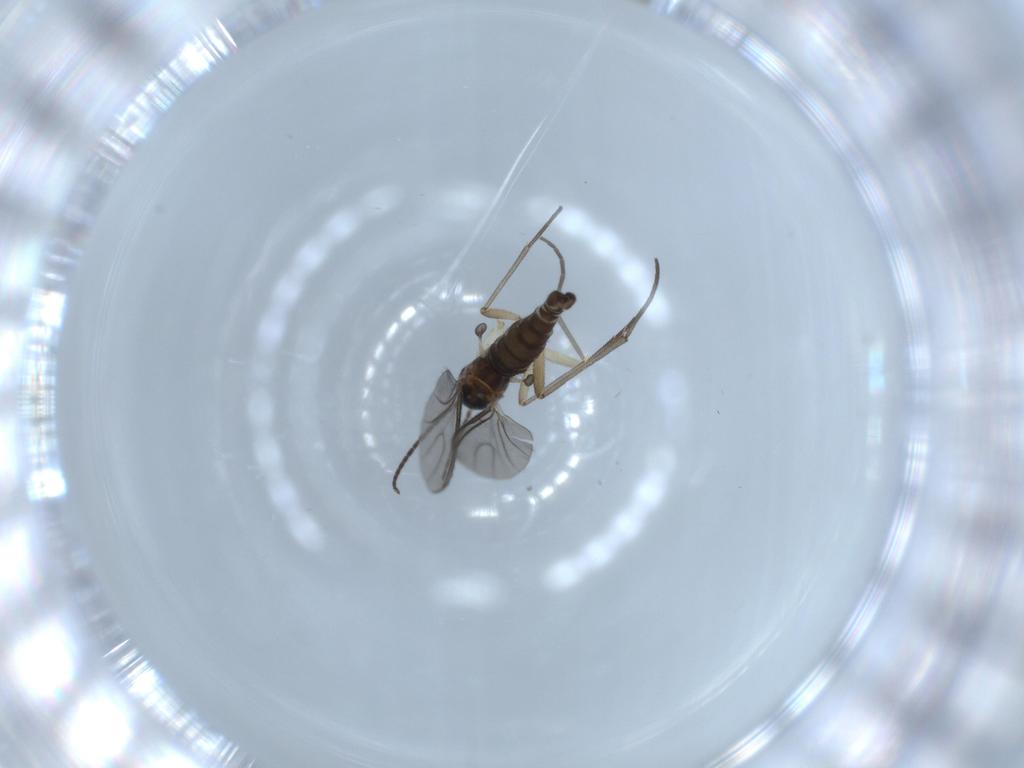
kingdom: Animalia
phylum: Arthropoda
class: Insecta
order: Diptera
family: Sciaridae
